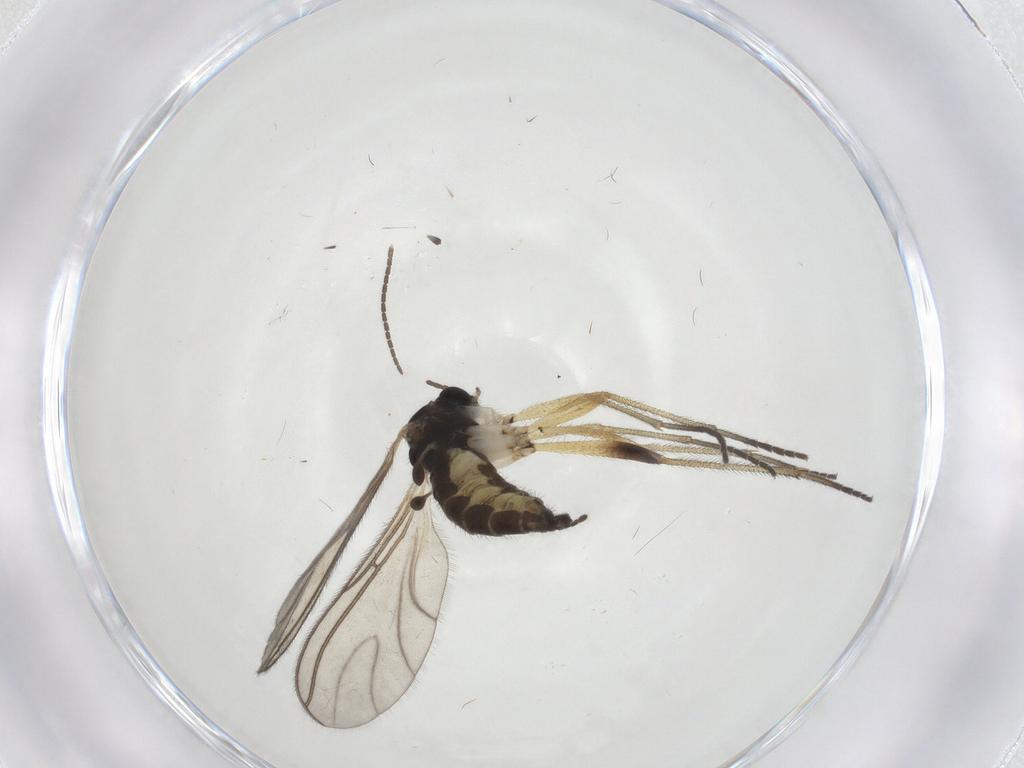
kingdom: Animalia
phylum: Arthropoda
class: Insecta
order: Diptera
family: Sciaridae
